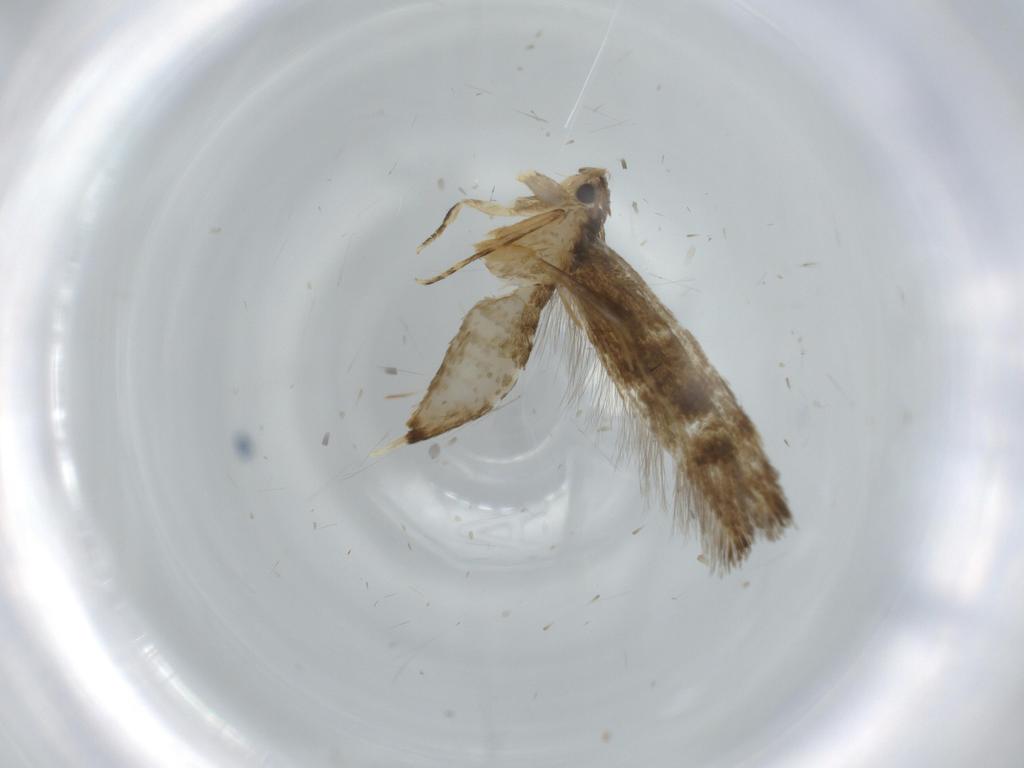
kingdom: Animalia
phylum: Arthropoda
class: Insecta
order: Lepidoptera
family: Tineidae
